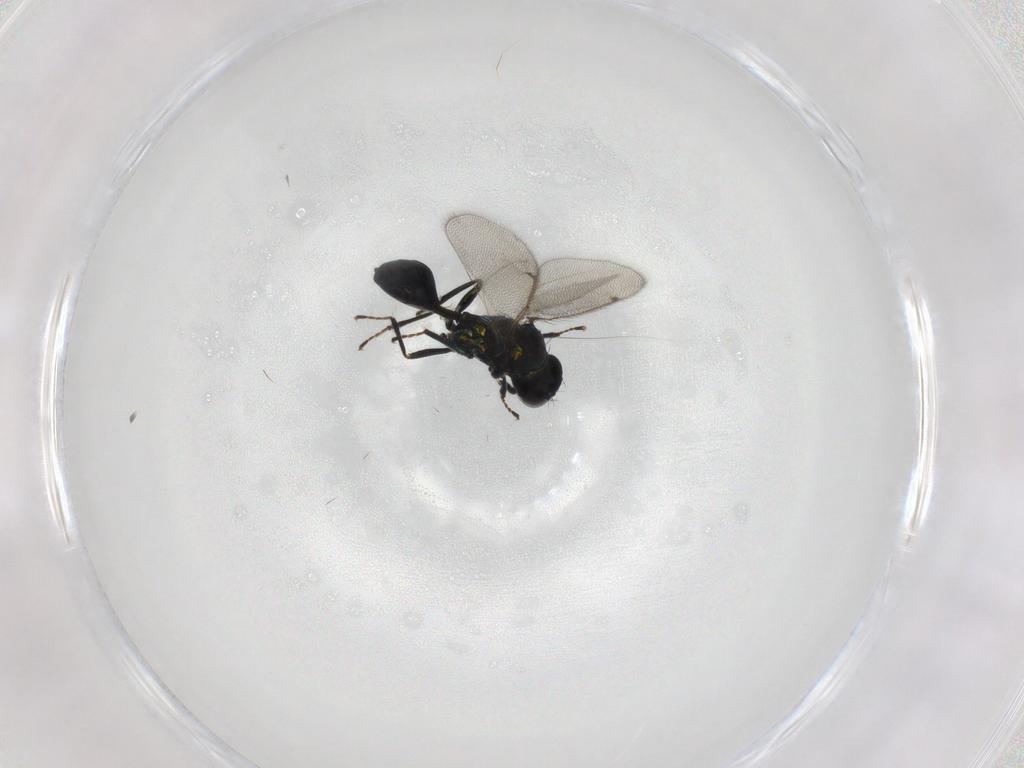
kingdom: Animalia
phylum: Arthropoda
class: Insecta
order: Hymenoptera
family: Eulophidae
